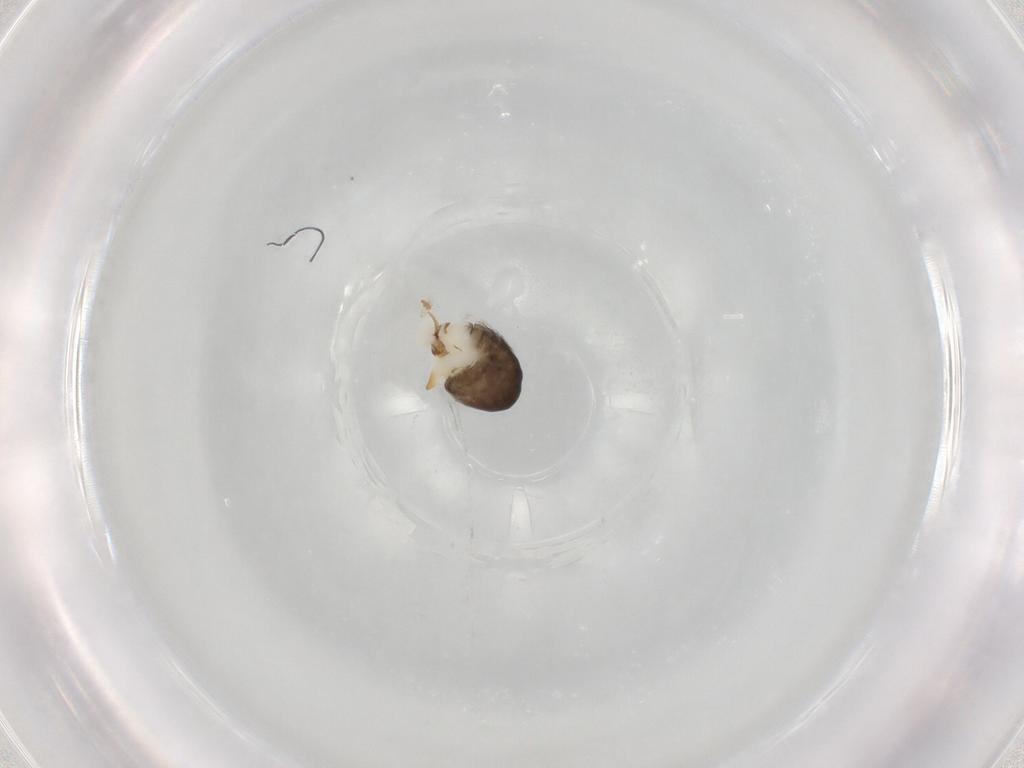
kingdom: Animalia
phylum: Arthropoda
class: Insecta
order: Hymenoptera
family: Dryinidae
